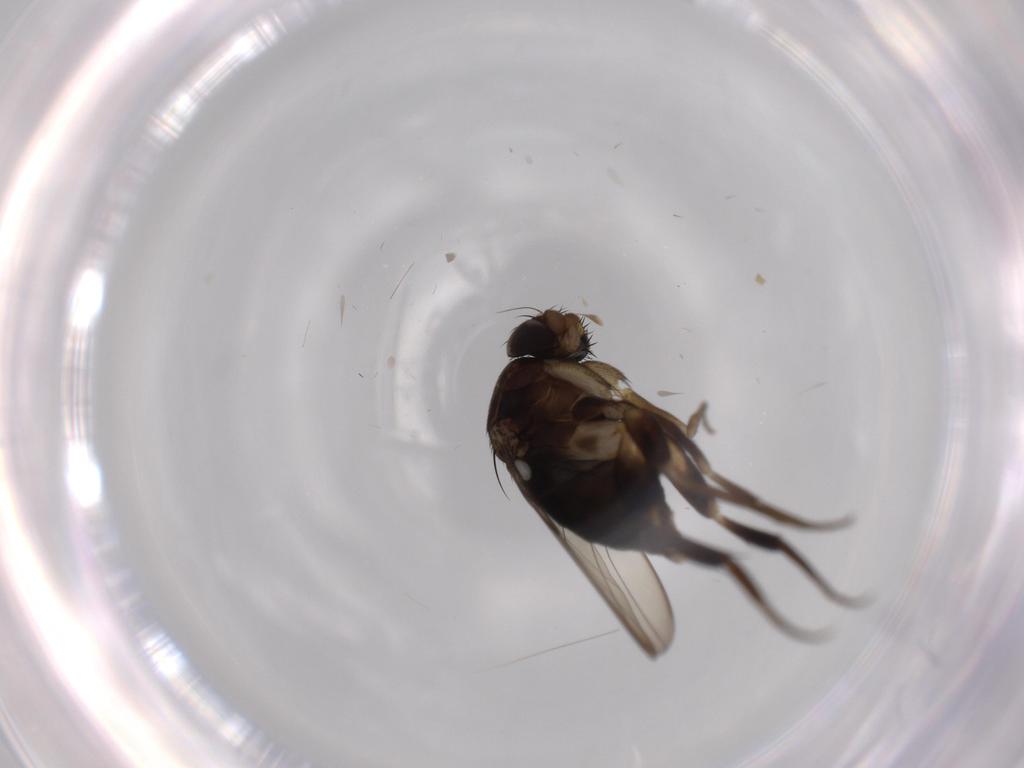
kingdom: Animalia
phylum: Arthropoda
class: Insecta
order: Diptera
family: Phoridae
